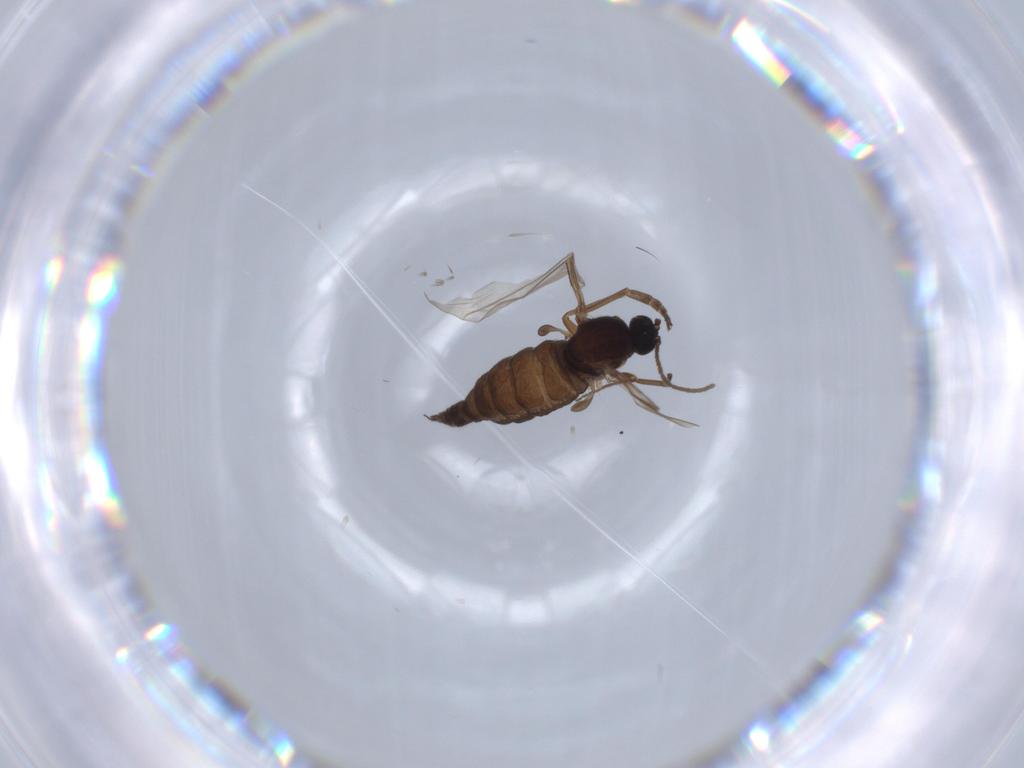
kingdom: Animalia
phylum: Arthropoda
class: Insecta
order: Diptera
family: Sciaridae
